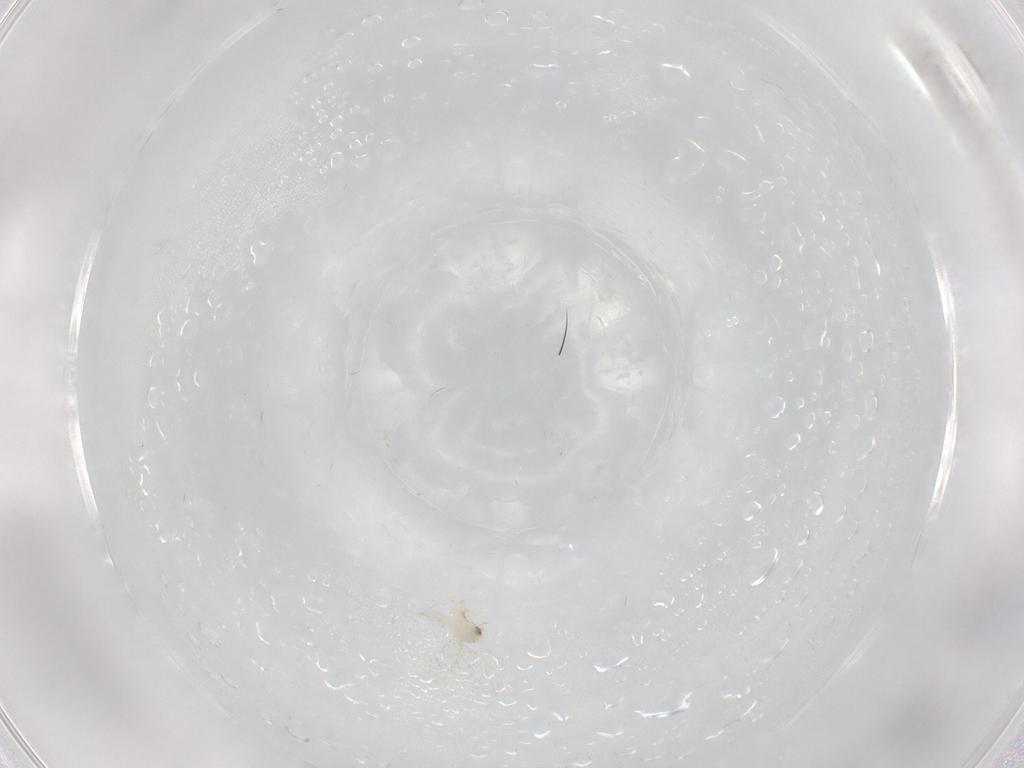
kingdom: Animalia
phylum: Arthropoda
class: Insecta
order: Hemiptera
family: Aleyrodidae
